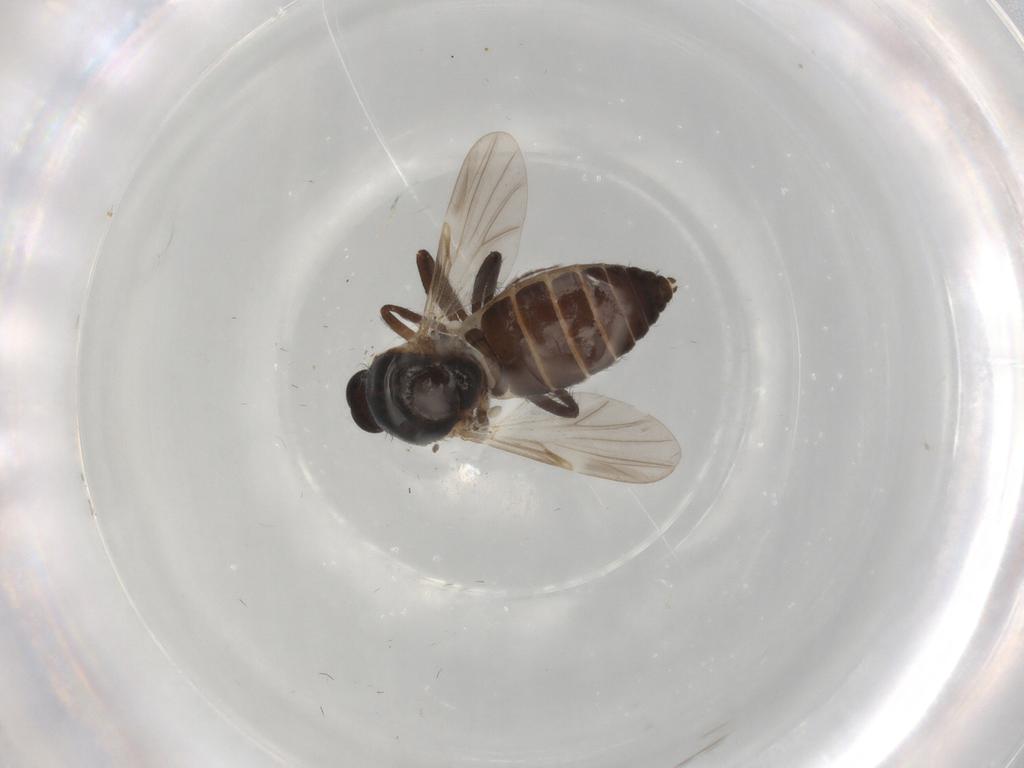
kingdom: Animalia
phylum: Arthropoda
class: Insecta
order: Diptera
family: Ceratopogonidae
